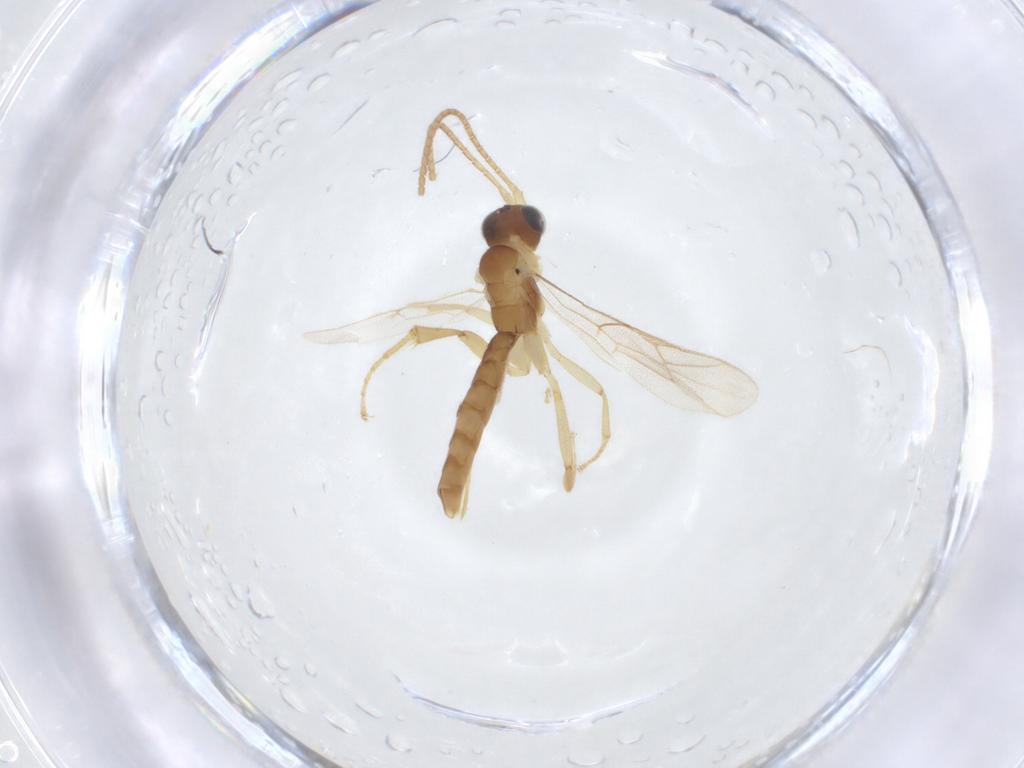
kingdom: Animalia
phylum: Arthropoda
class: Insecta
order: Hymenoptera
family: Ichneumonidae
